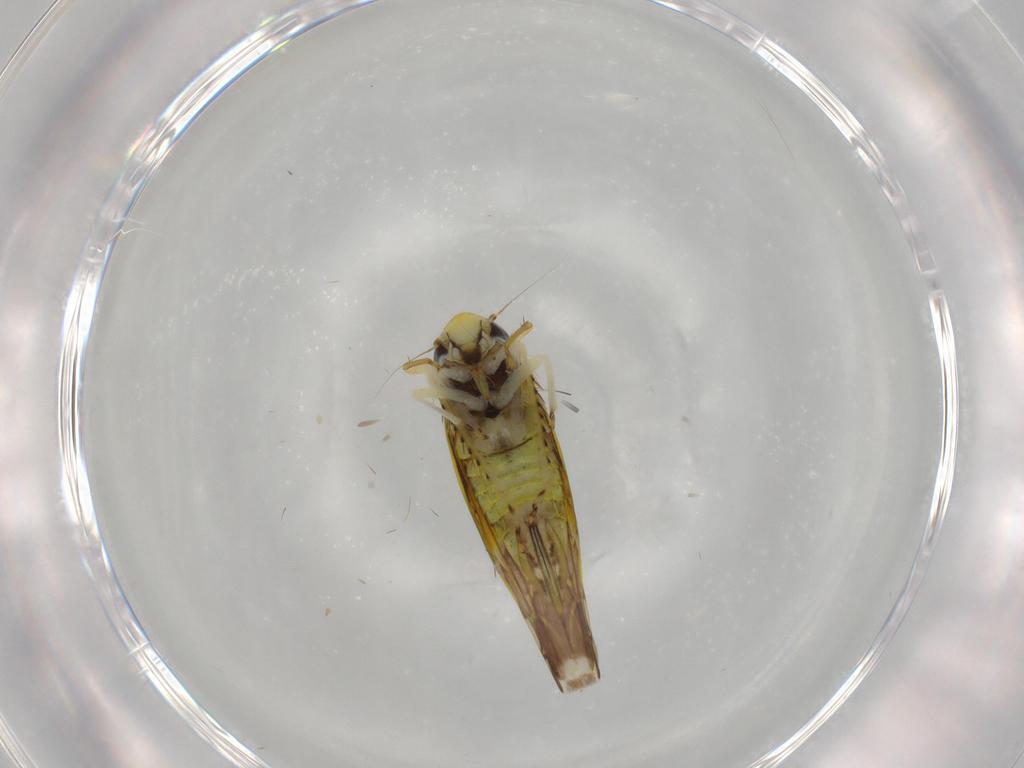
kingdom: Animalia
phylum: Arthropoda
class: Insecta
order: Hemiptera
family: Cicadellidae
